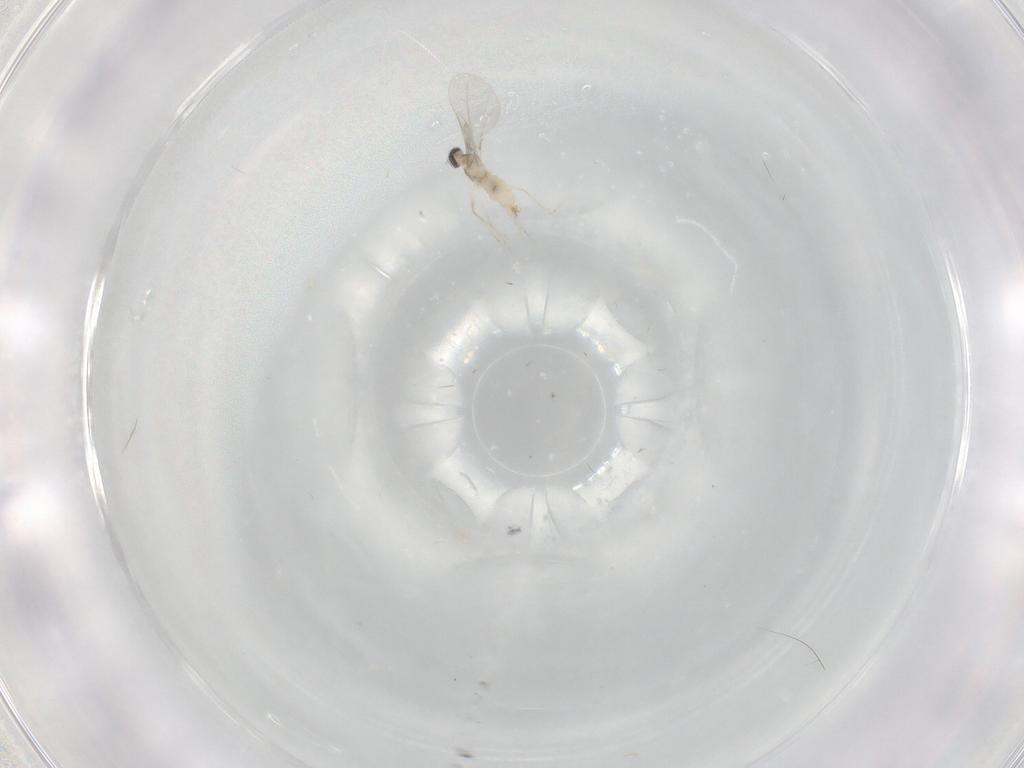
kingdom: Animalia
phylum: Arthropoda
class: Insecta
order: Diptera
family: Cecidomyiidae
